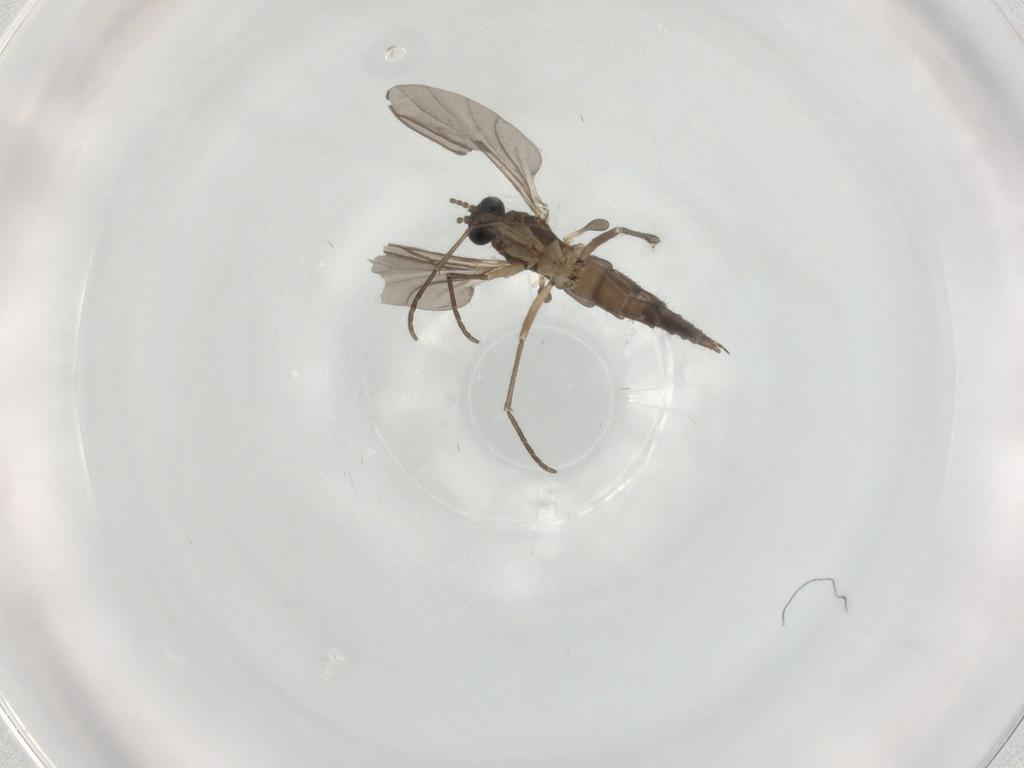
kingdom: Animalia
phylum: Arthropoda
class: Insecta
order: Diptera
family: Sciaridae
